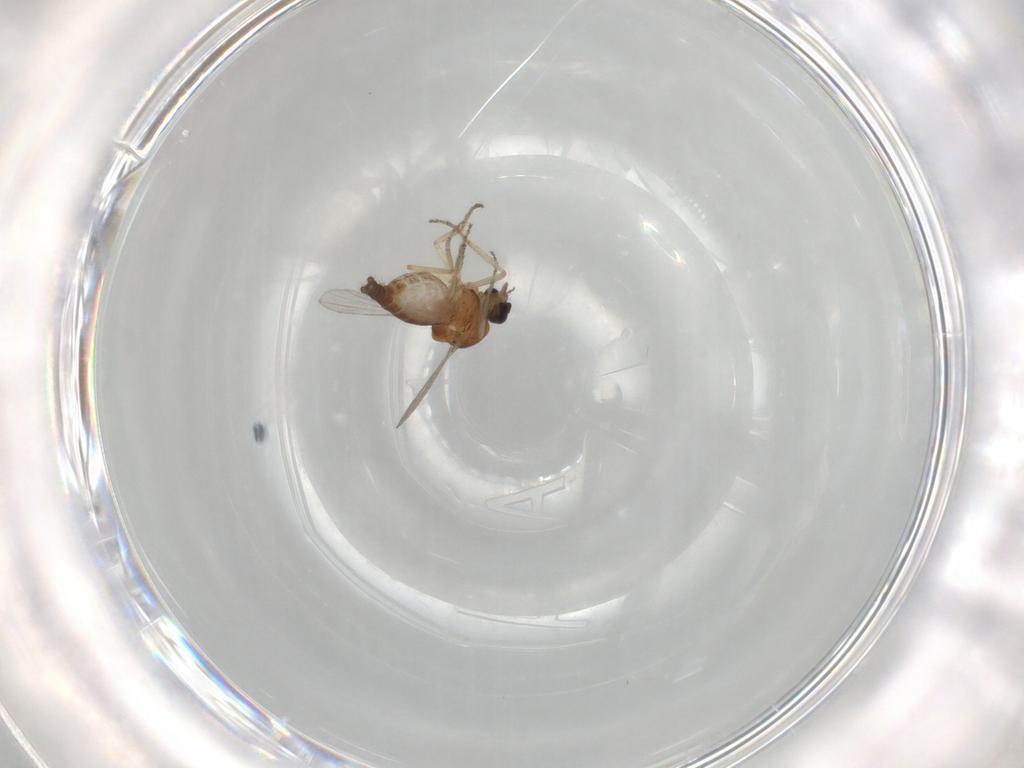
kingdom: Animalia
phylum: Arthropoda
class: Insecta
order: Diptera
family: Ceratopogonidae
